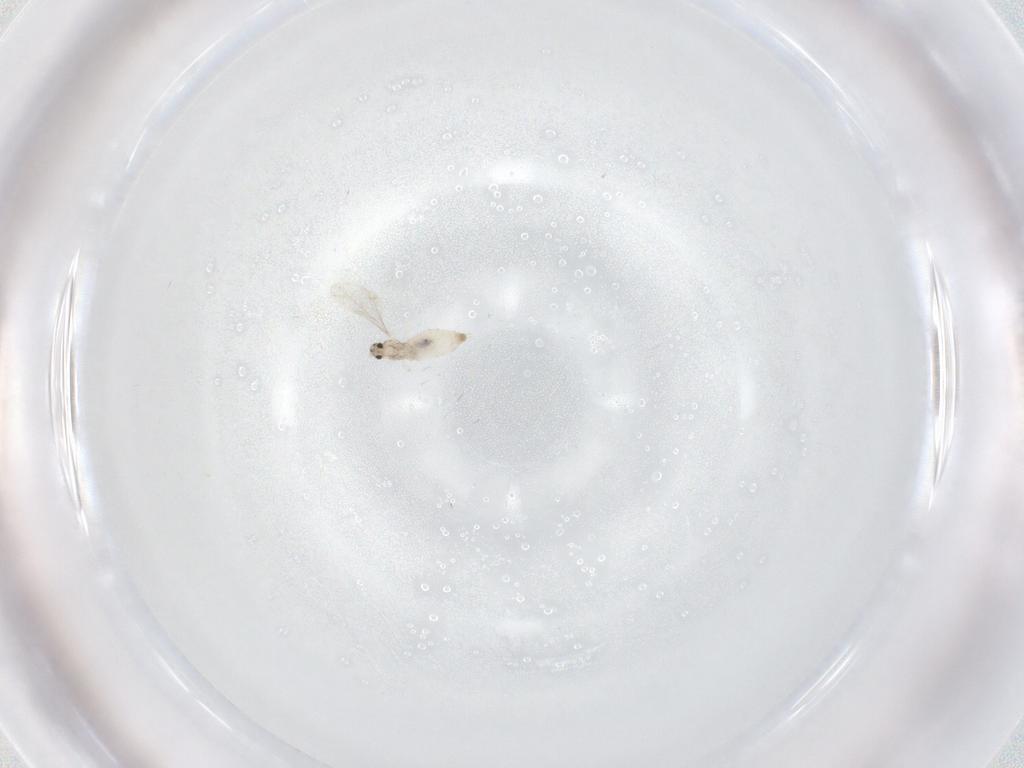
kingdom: Animalia
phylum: Arthropoda
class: Insecta
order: Diptera
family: Cecidomyiidae
